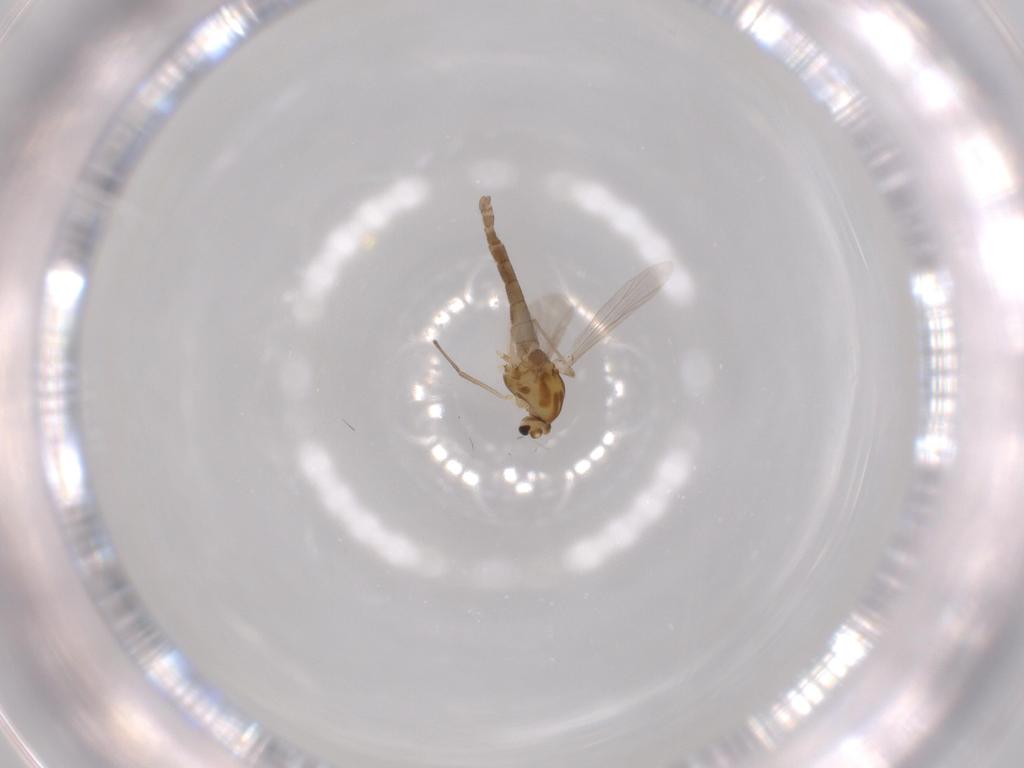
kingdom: Animalia
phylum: Arthropoda
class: Insecta
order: Diptera
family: Chironomidae
